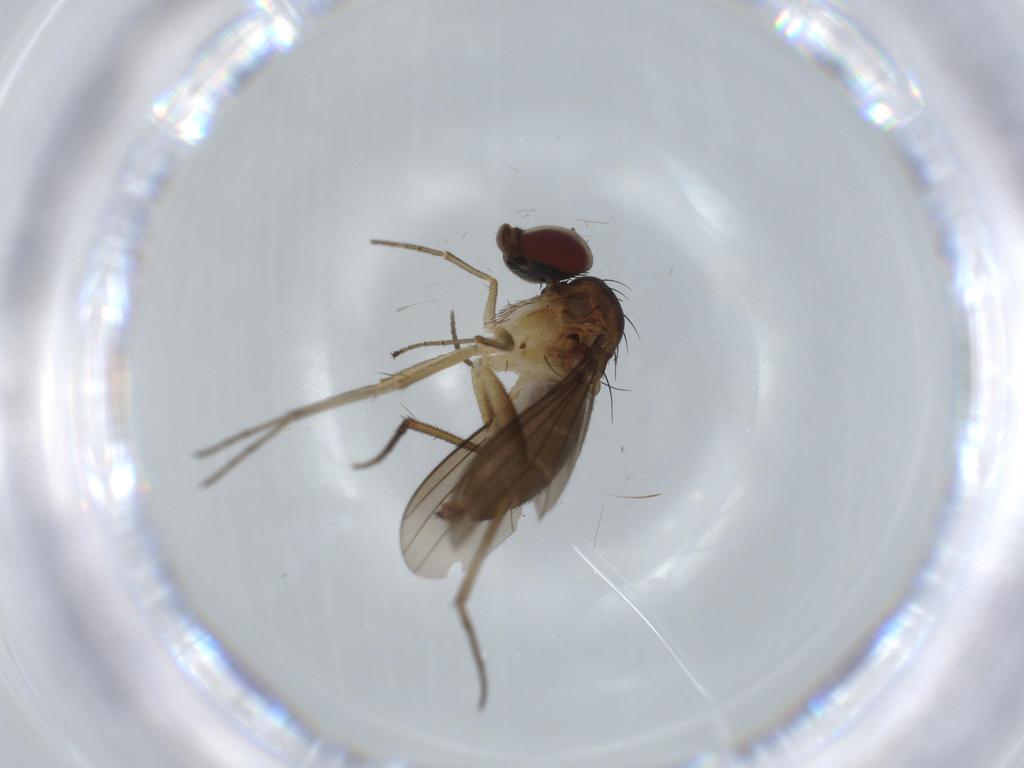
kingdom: Animalia
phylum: Arthropoda
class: Insecta
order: Diptera
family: Dolichopodidae
